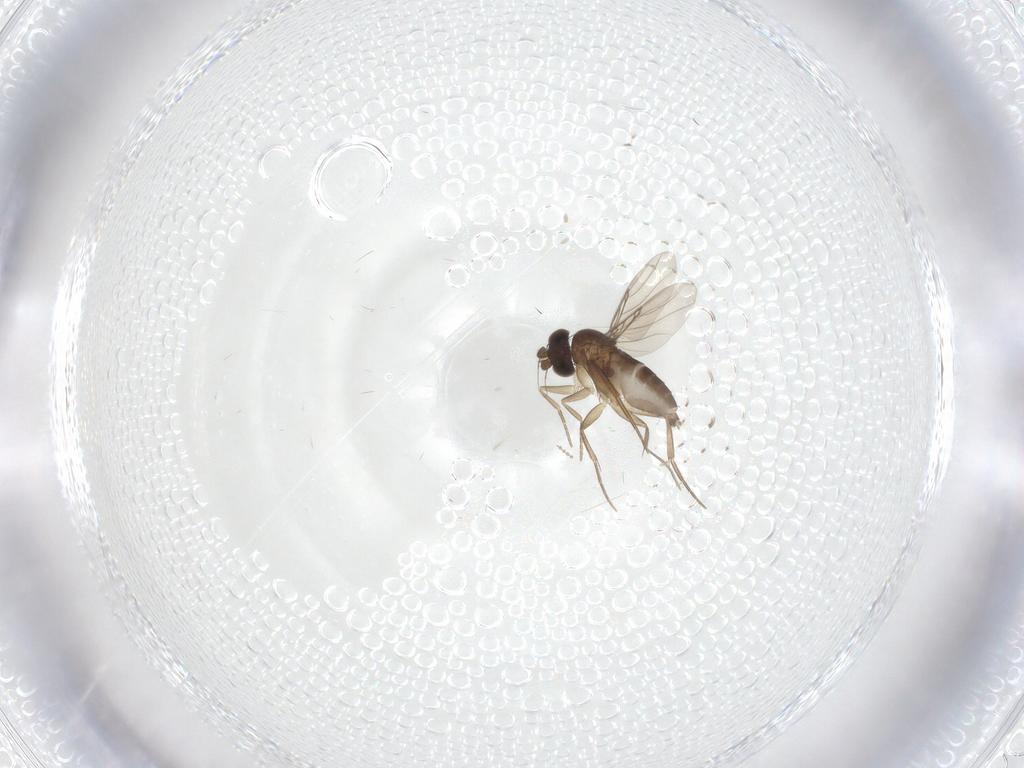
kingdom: Animalia
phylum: Arthropoda
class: Insecta
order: Diptera
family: Phoridae
